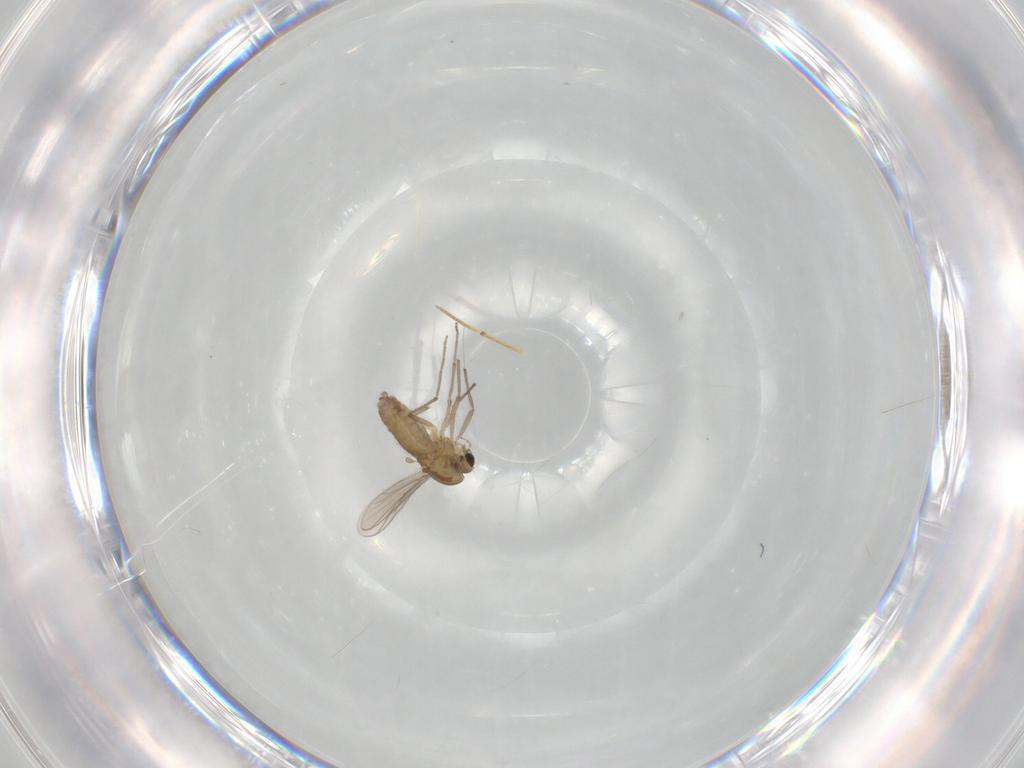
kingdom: Animalia
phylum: Arthropoda
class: Insecta
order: Diptera
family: Chironomidae
